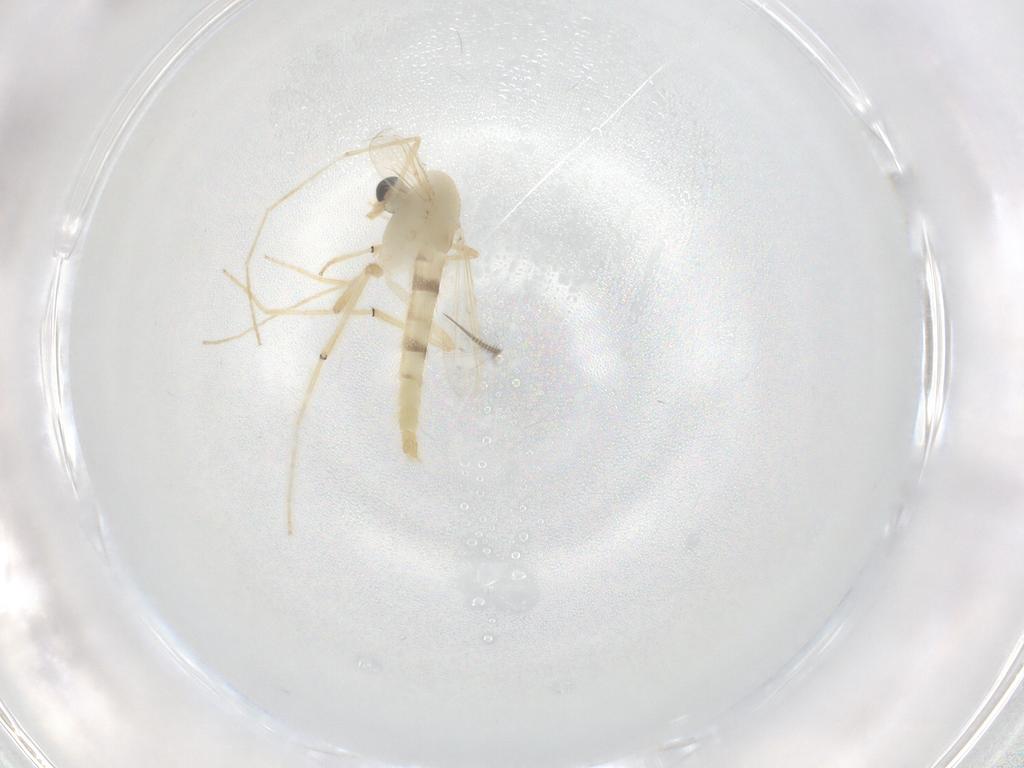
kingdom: Animalia
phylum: Arthropoda
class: Insecta
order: Diptera
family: Chironomidae
